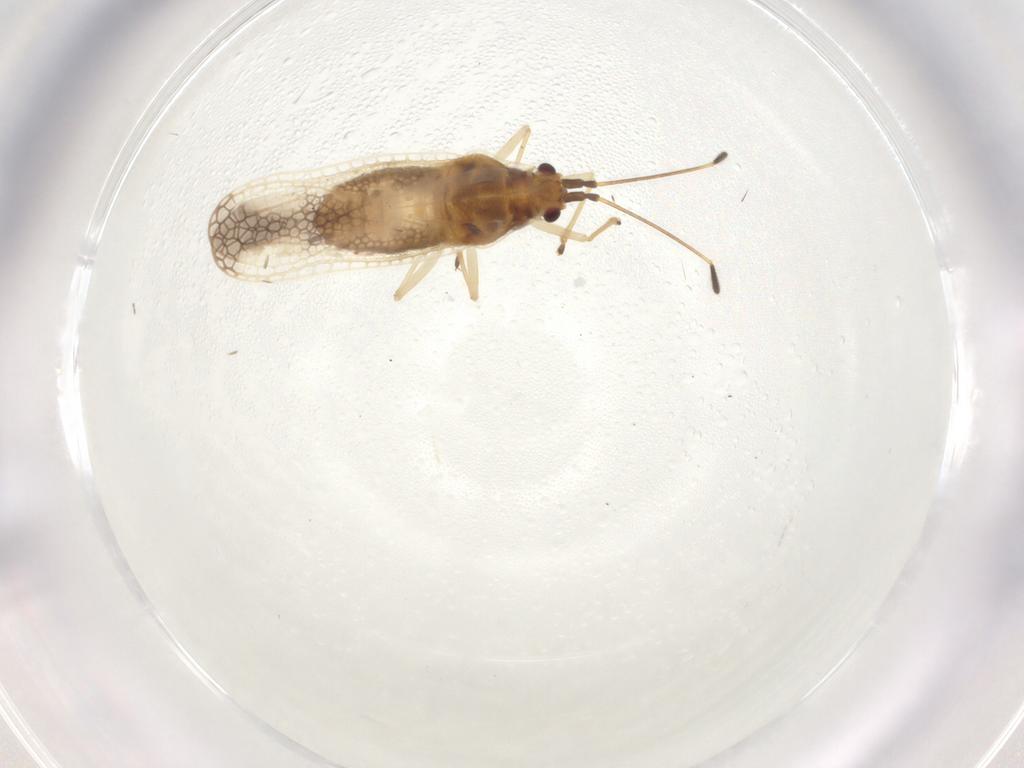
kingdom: Animalia
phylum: Arthropoda
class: Insecta
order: Hemiptera
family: Tingidae
